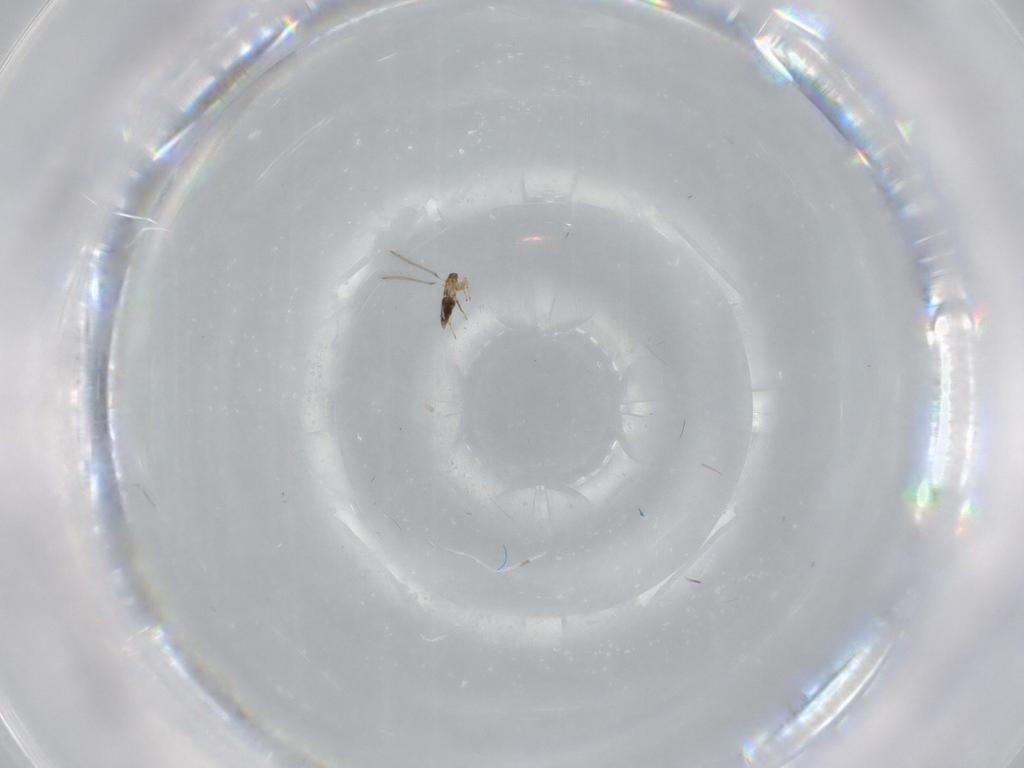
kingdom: Animalia
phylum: Arthropoda
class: Insecta
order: Hymenoptera
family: Mymaridae
